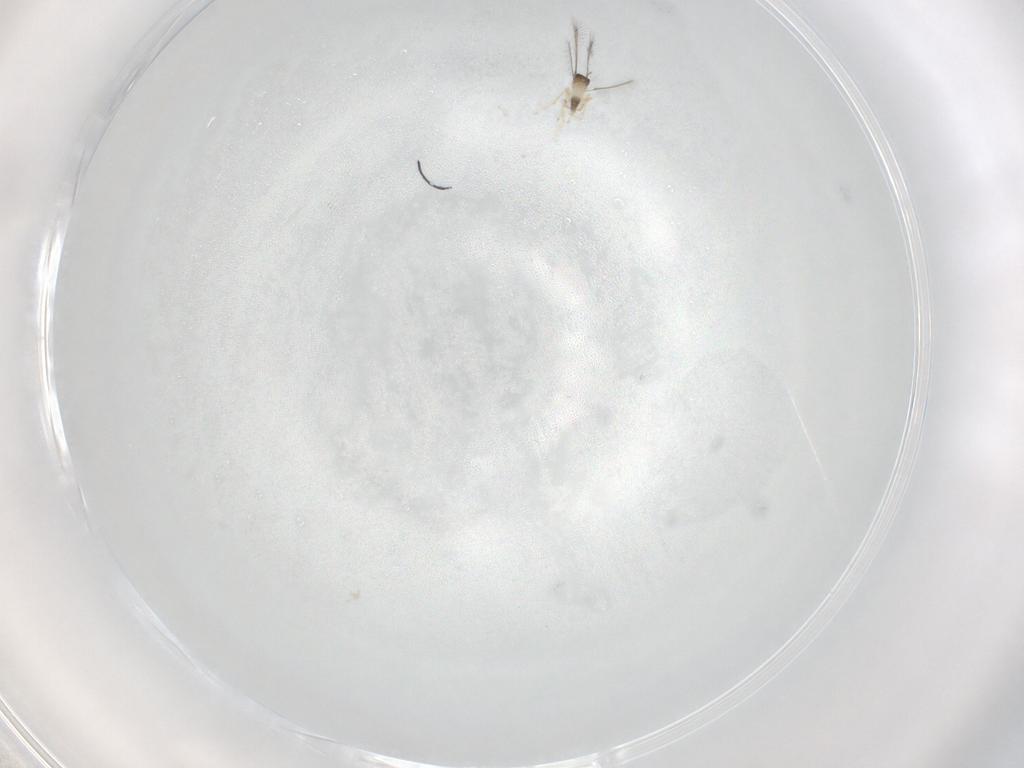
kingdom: Animalia
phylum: Arthropoda
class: Insecta
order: Hymenoptera
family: Mymaridae
